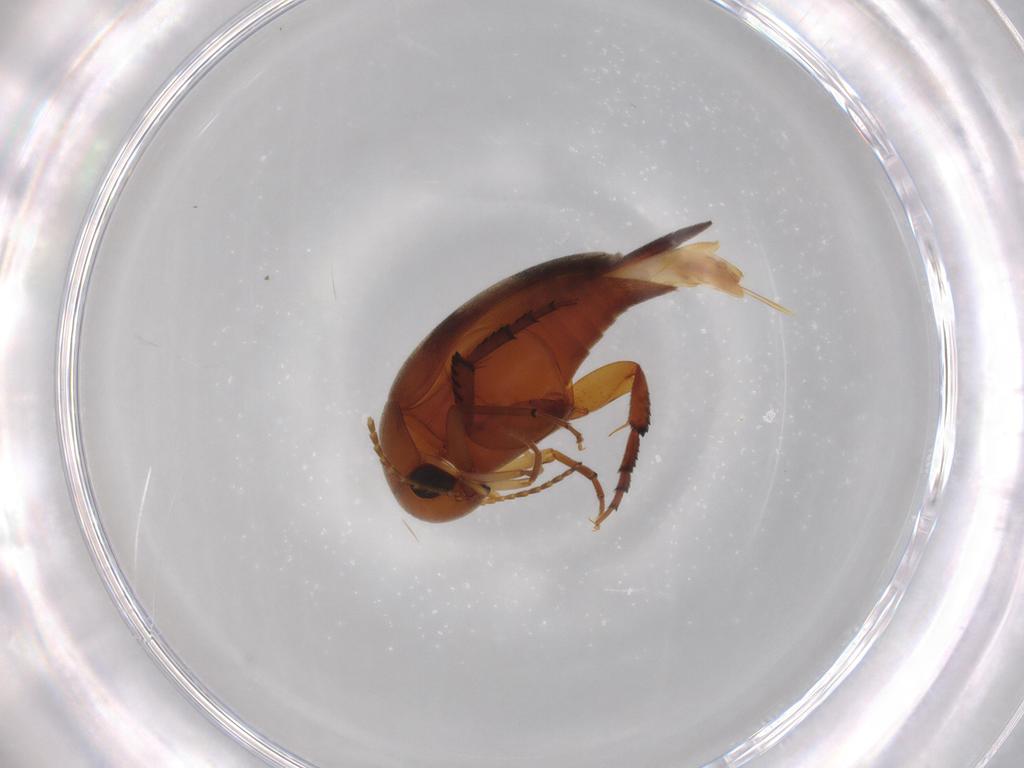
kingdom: Animalia
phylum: Arthropoda
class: Insecta
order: Coleoptera
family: Mordellidae
